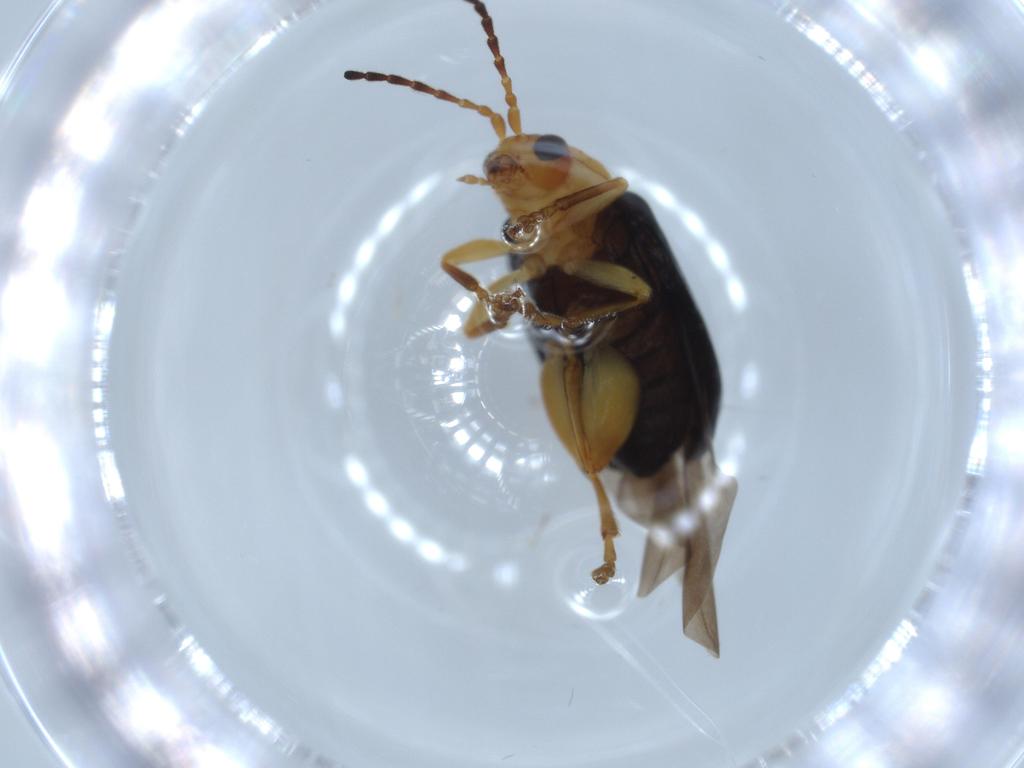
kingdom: Animalia
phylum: Arthropoda
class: Insecta
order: Coleoptera
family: Chrysomelidae
